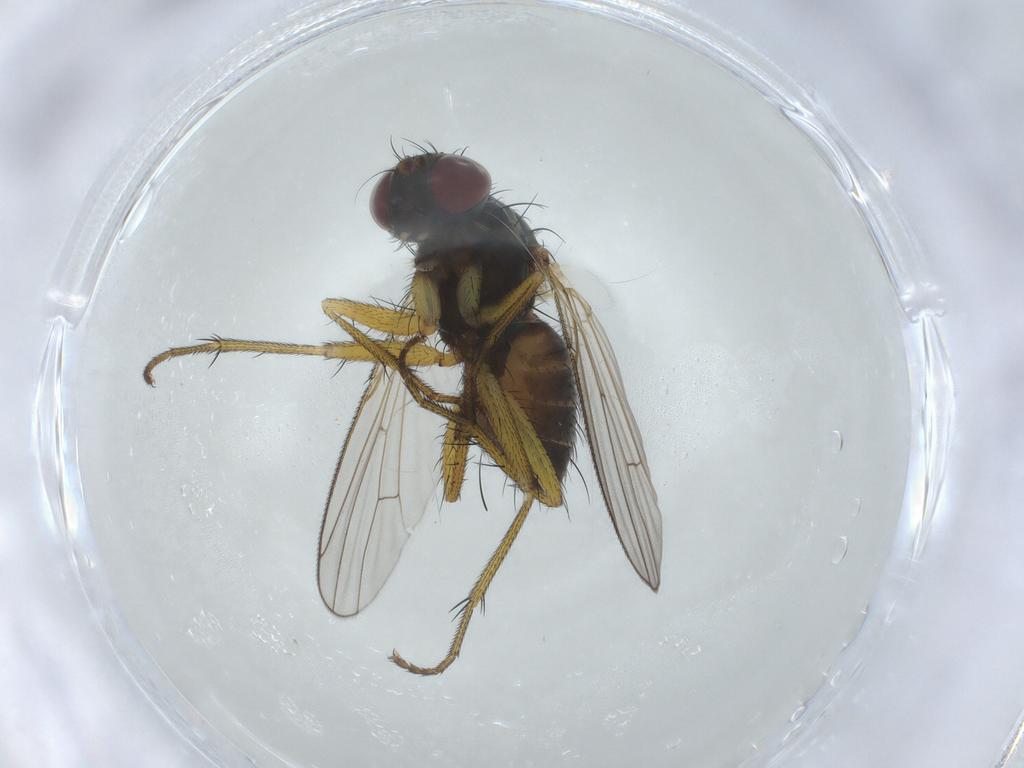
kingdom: Animalia
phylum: Arthropoda
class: Insecta
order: Diptera
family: Muscidae
